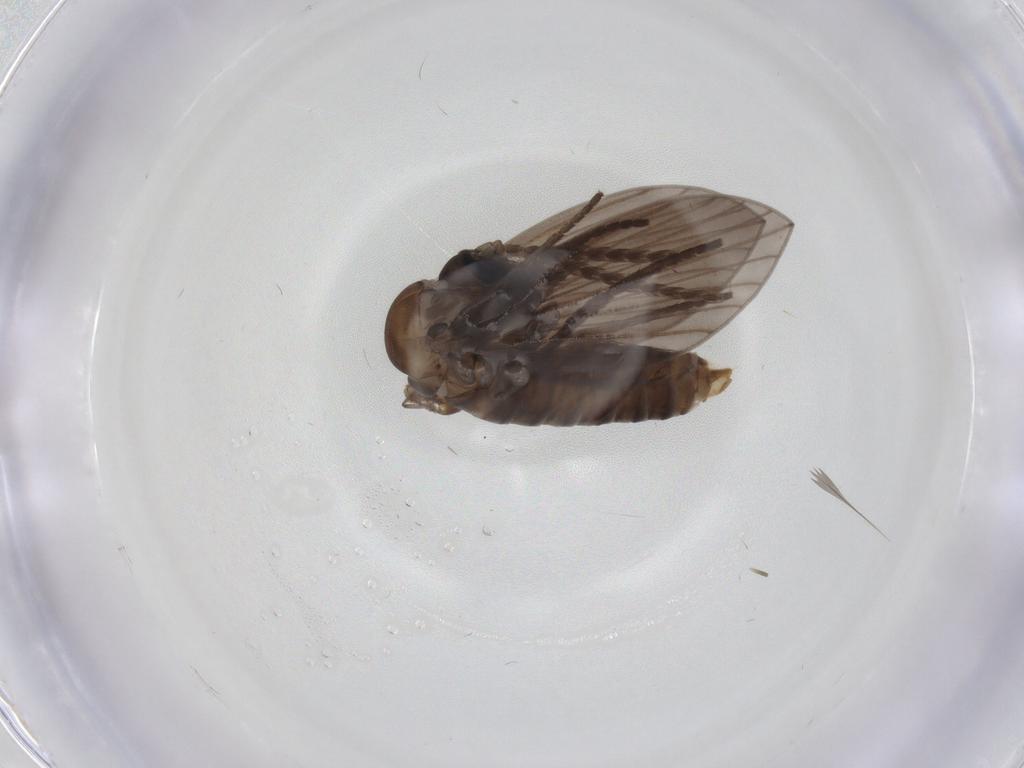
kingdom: Animalia
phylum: Arthropoda
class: Insecta
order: Diptera
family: Psychodidae
